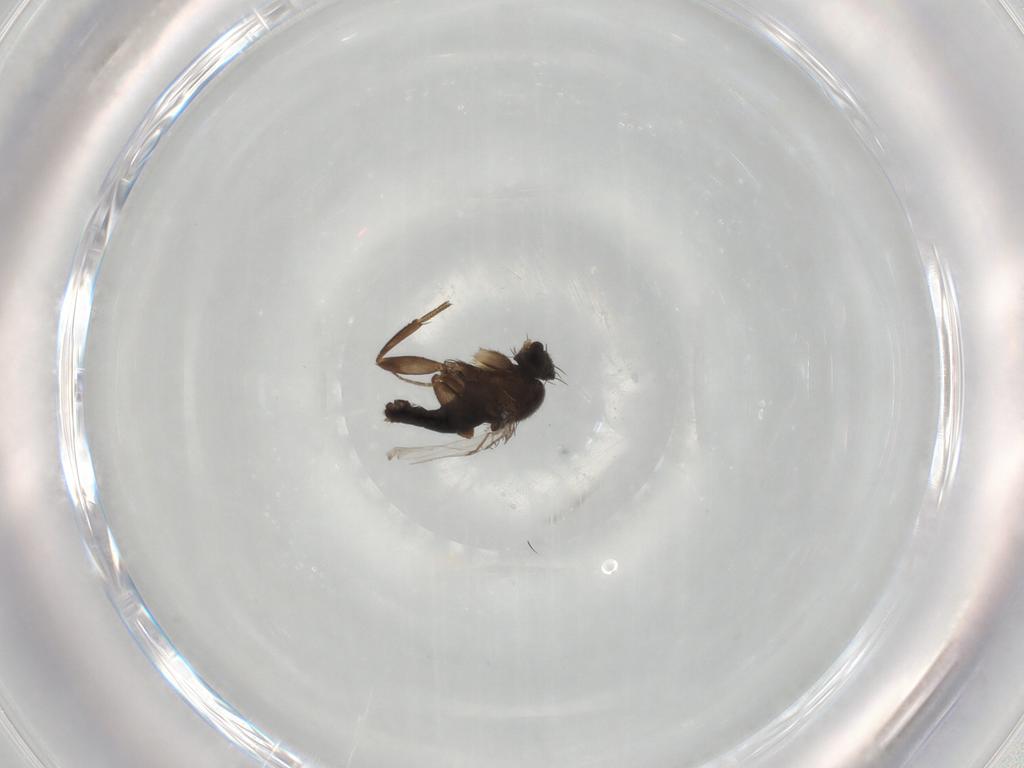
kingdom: Animalia
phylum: Arthropoda
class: Insecta
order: Diptera
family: Phoridae
